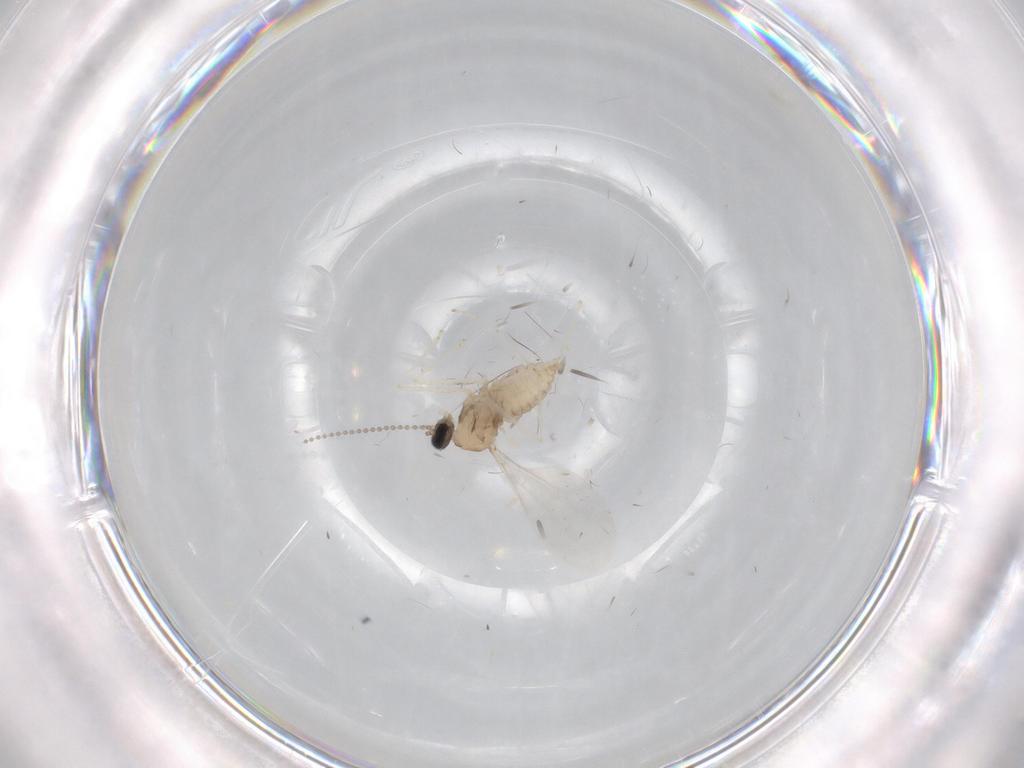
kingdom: Animalia
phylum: Arthropoda
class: Insecta
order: Diptera
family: Cecidomyiidae
